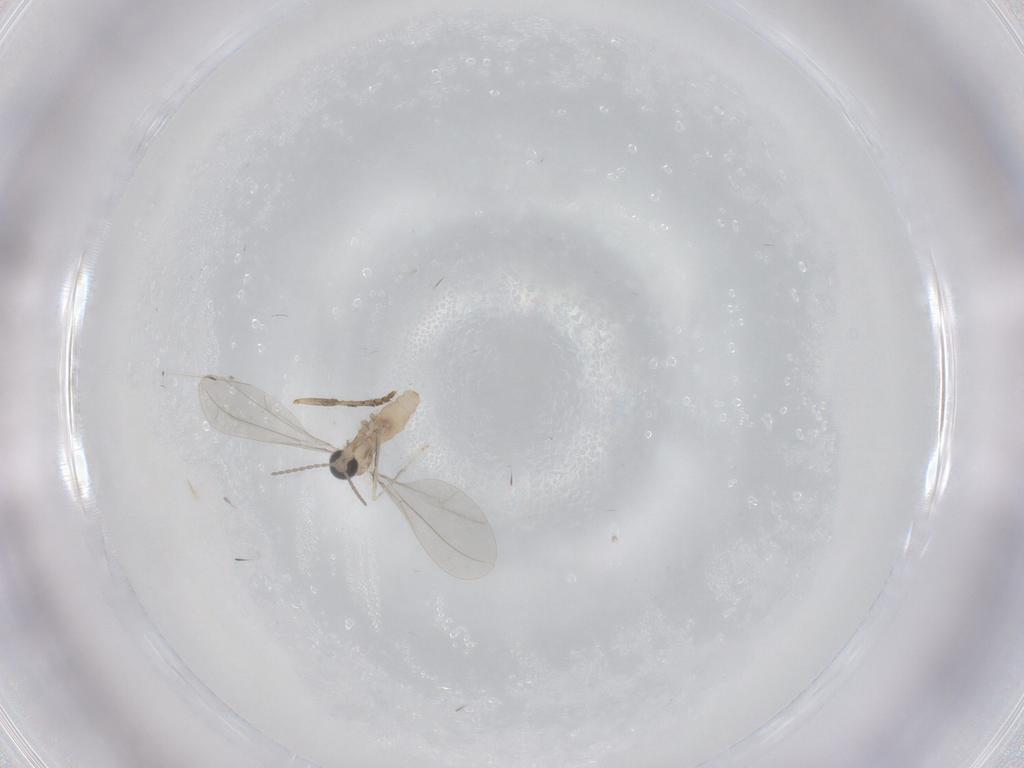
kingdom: Animalia
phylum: Arthropoda
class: Insecta
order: Diptera
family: Cecidomyiidae
